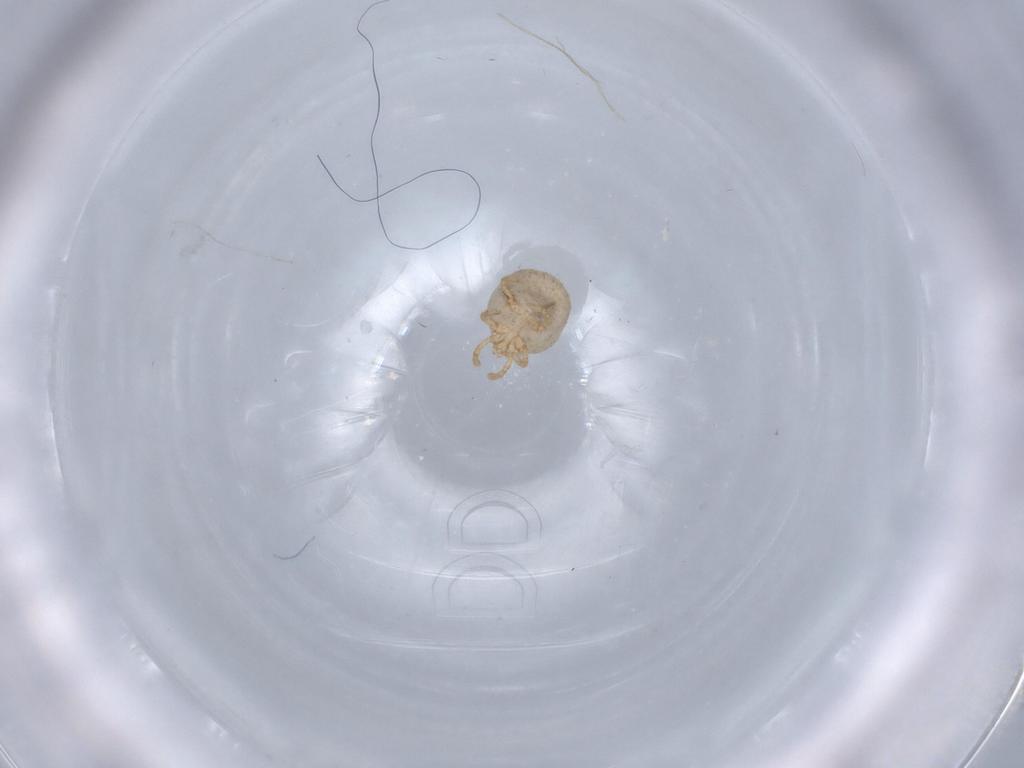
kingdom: Animalia
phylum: Arthropoda
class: Arachnida
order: Trombidiformes
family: Calyptostomatidae
